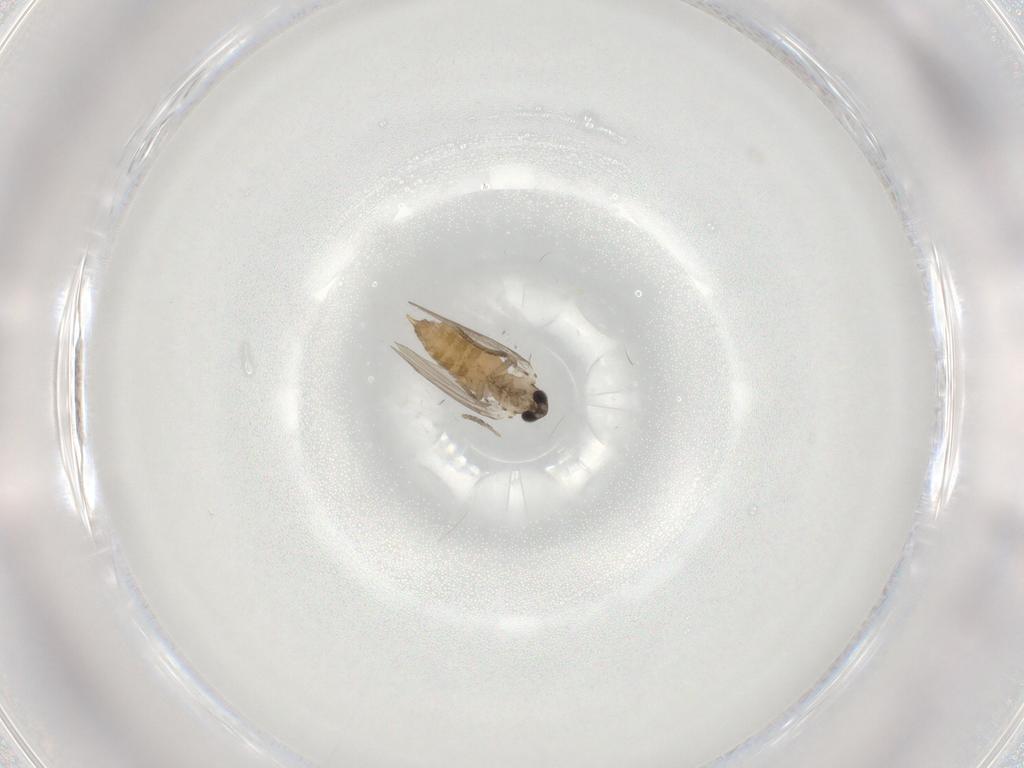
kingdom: Animalia
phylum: Arthropoda
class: Insecta
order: Diptera
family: Psychodidae
